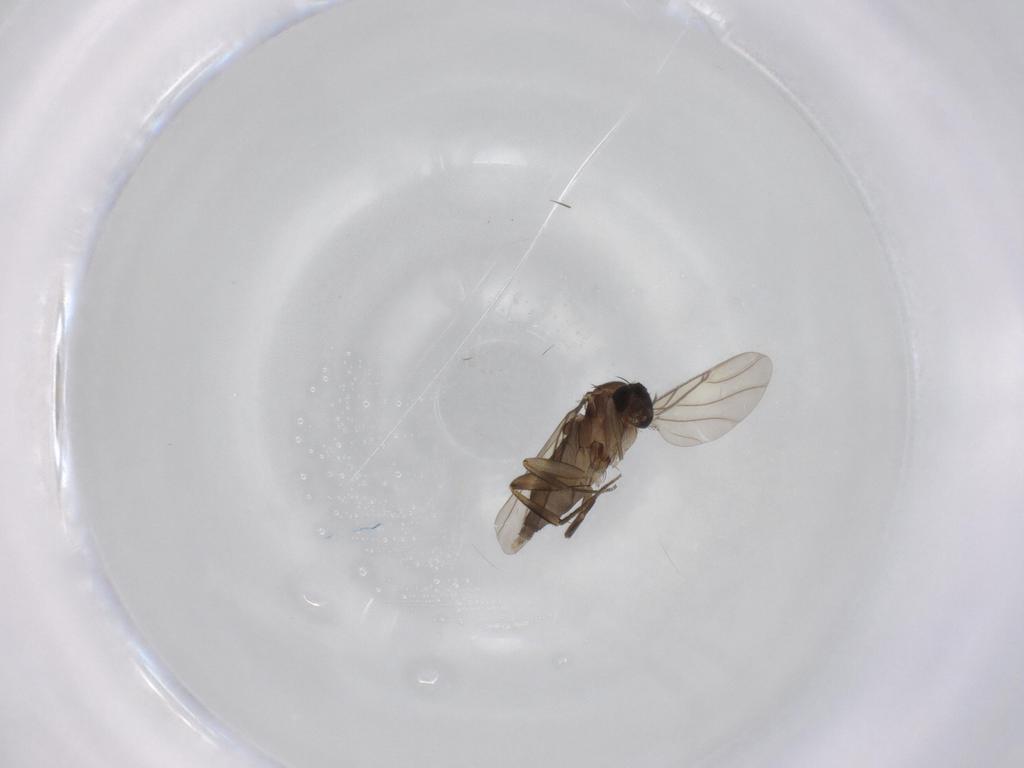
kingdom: Animalia
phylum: Arthropoda
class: Insecta
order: Diptera
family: Phoridae
